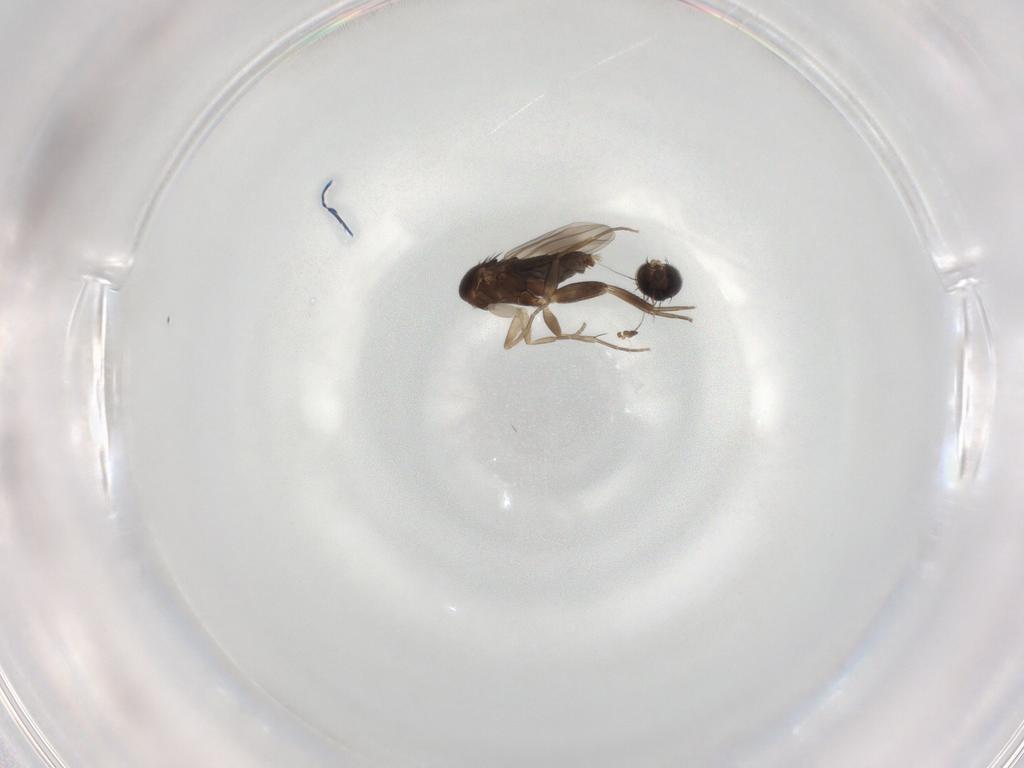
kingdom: Animalia
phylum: Arthropoda
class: Insecta
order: Diptera
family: Phoridae
